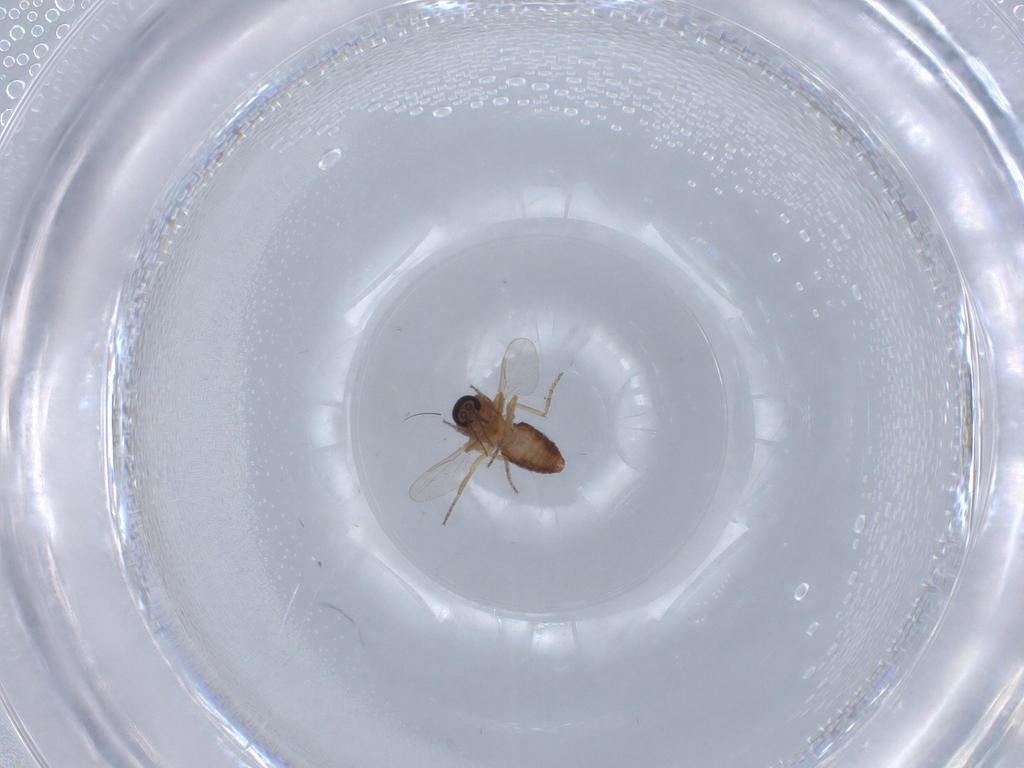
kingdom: Animalia
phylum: Arthropoda
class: Insecta
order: Diptera
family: Ceratopogonidae
